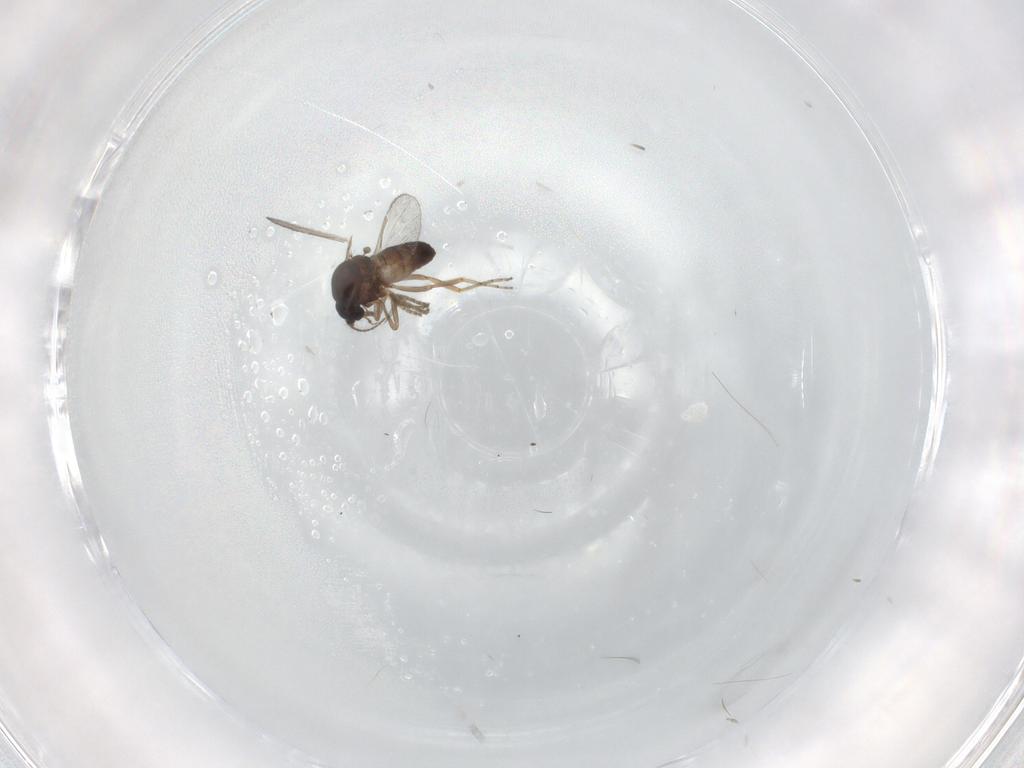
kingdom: Animalia
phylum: Arthropoda
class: Insecta
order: Diptera
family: Ceratopogonidae
